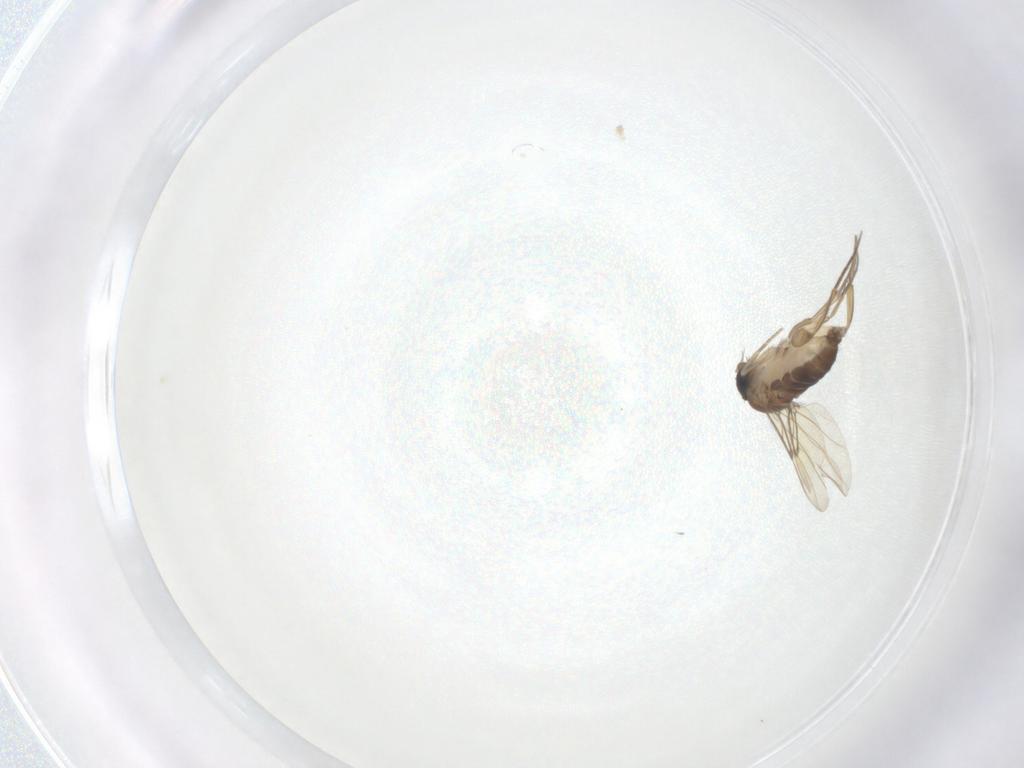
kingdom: Animalia
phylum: Arthropoda
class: Insecta
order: Diptera
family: Phoridae
